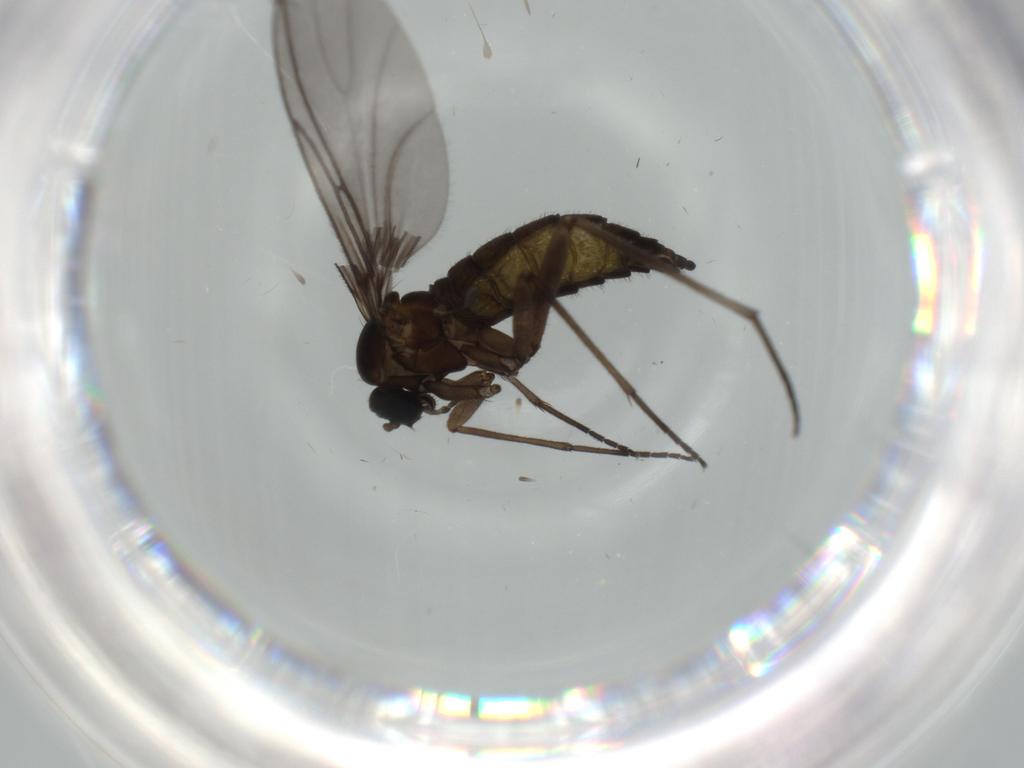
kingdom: Animalia
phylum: Arthropoda
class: Insecta
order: Diptera
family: Sciaridae
